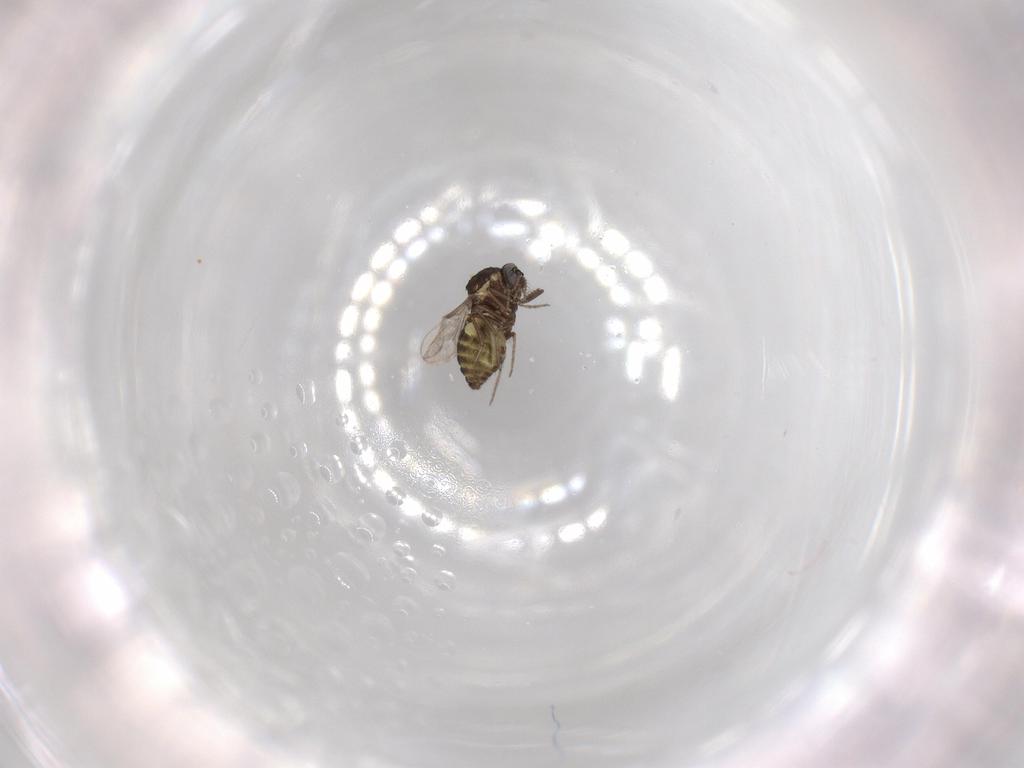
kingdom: Animalia
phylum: Arthropoda
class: Insecta
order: Diptera
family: Ceratopogonidae
